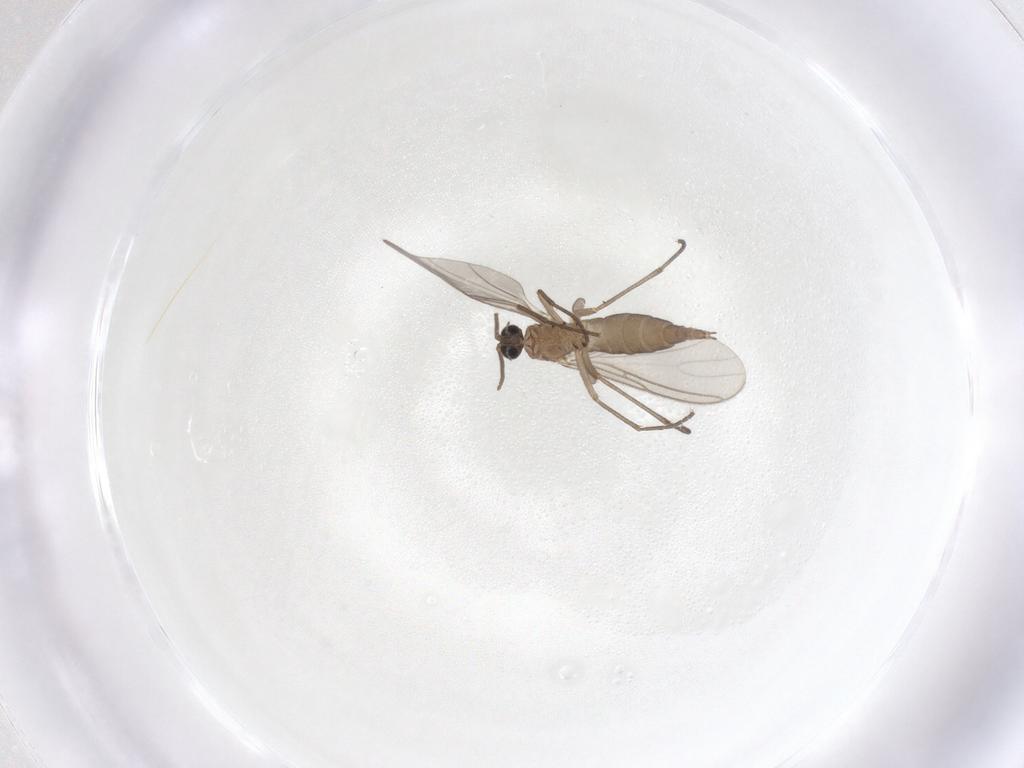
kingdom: Animalia
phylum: Arthropoda
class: Insecta
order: Diptera
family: Sciaridae
